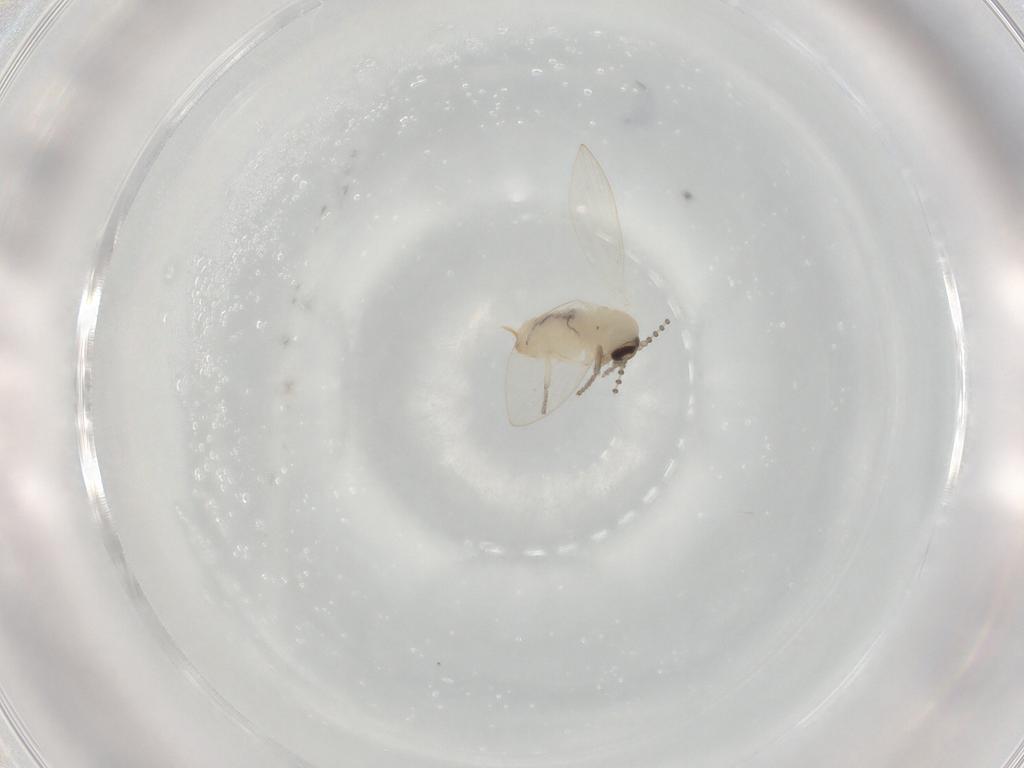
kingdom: Animalia
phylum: Arthropoda
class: Insecta
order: Diptera
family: Psychodidae
